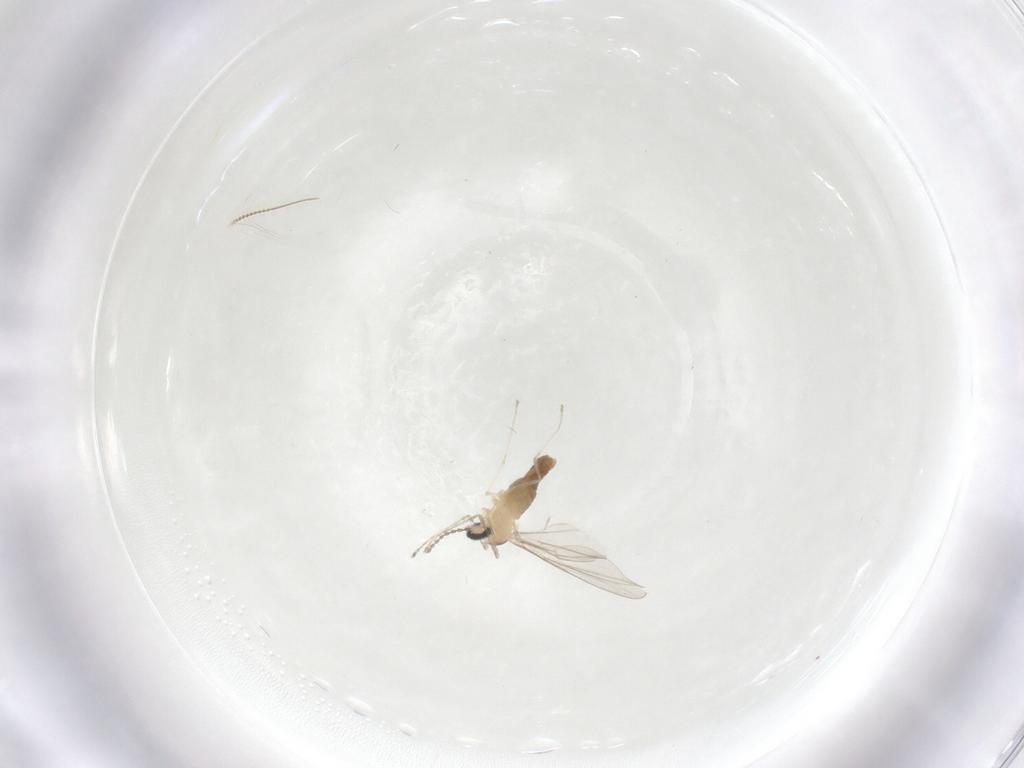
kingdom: Animalia
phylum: Arthropoda
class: Insecta
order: Diptera
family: Cecidomyiidae
